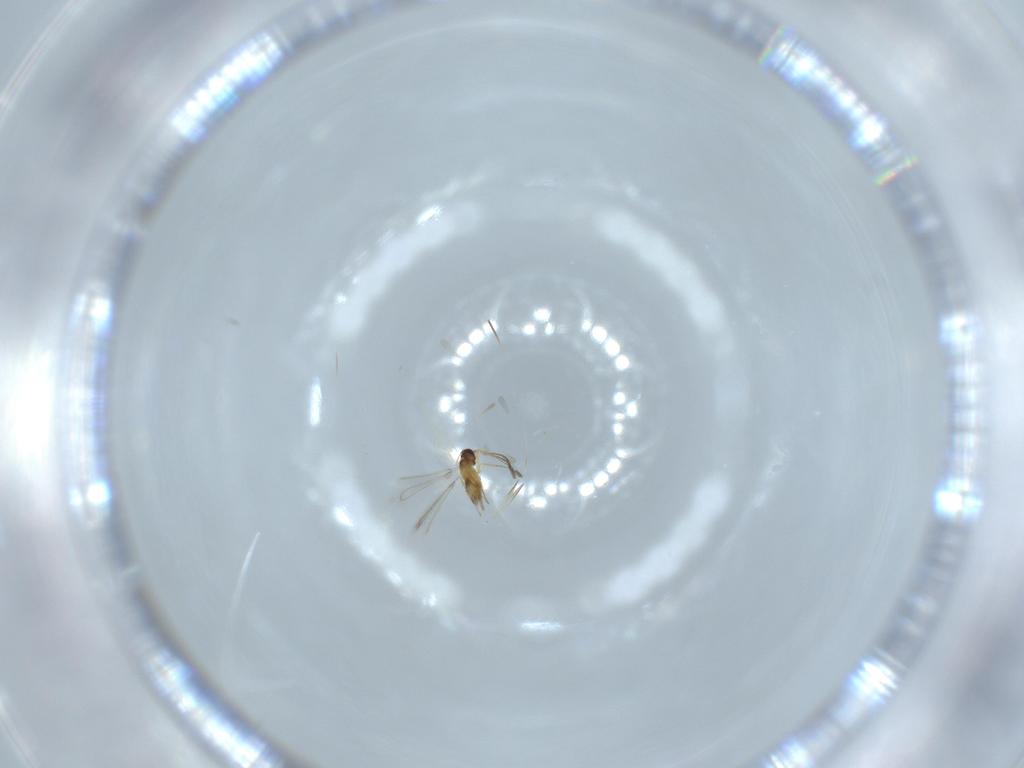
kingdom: Animalia
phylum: Arthropoda
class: Insecta
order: Hymenoptera
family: Mymaridae
